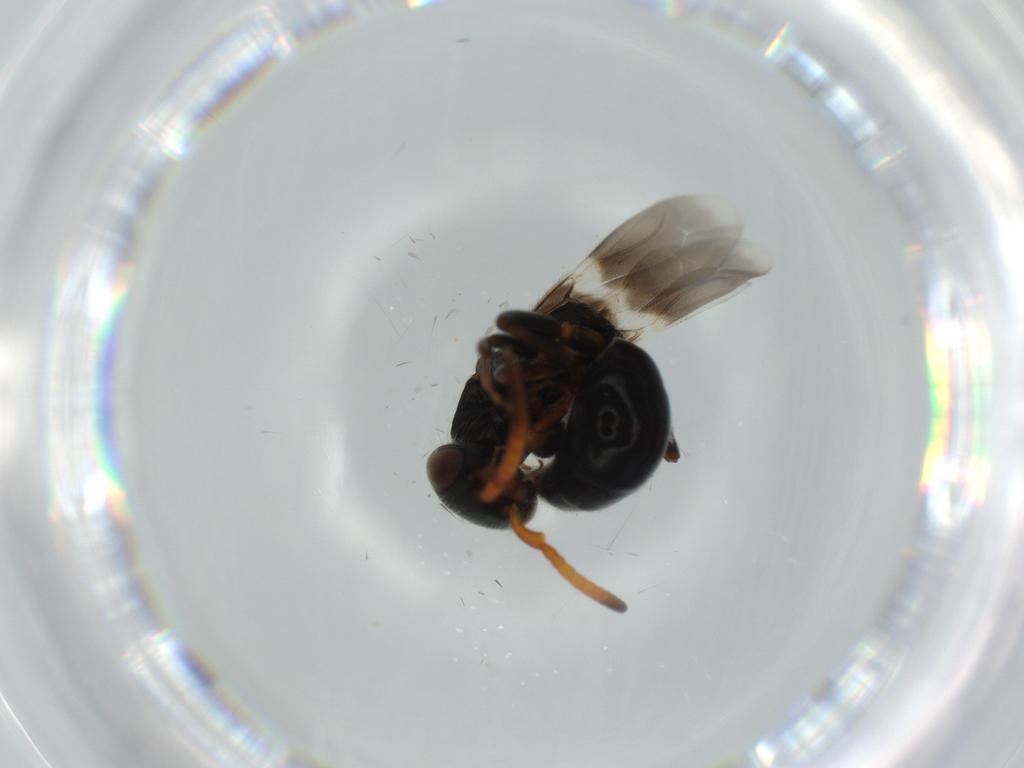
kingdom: Animalia
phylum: Arthropoda
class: Insecta
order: Hymenoptera
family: Bethylidae
